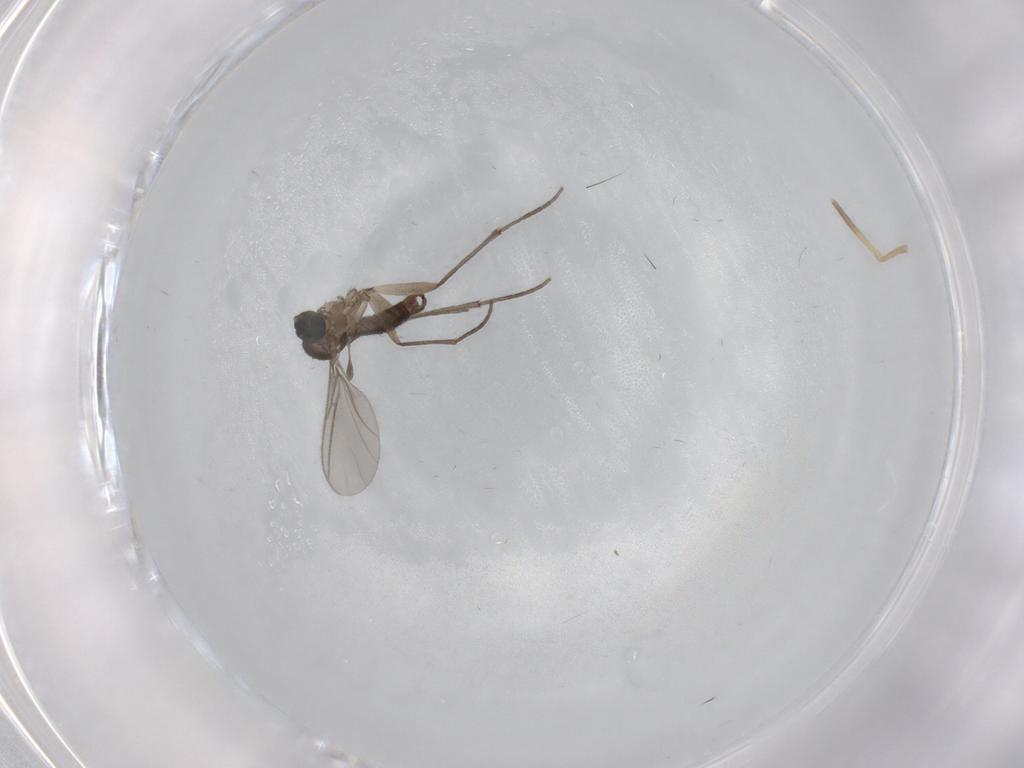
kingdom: Animalia
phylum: Arthropoda
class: Insecta
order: Diptera
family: Sciaridae
